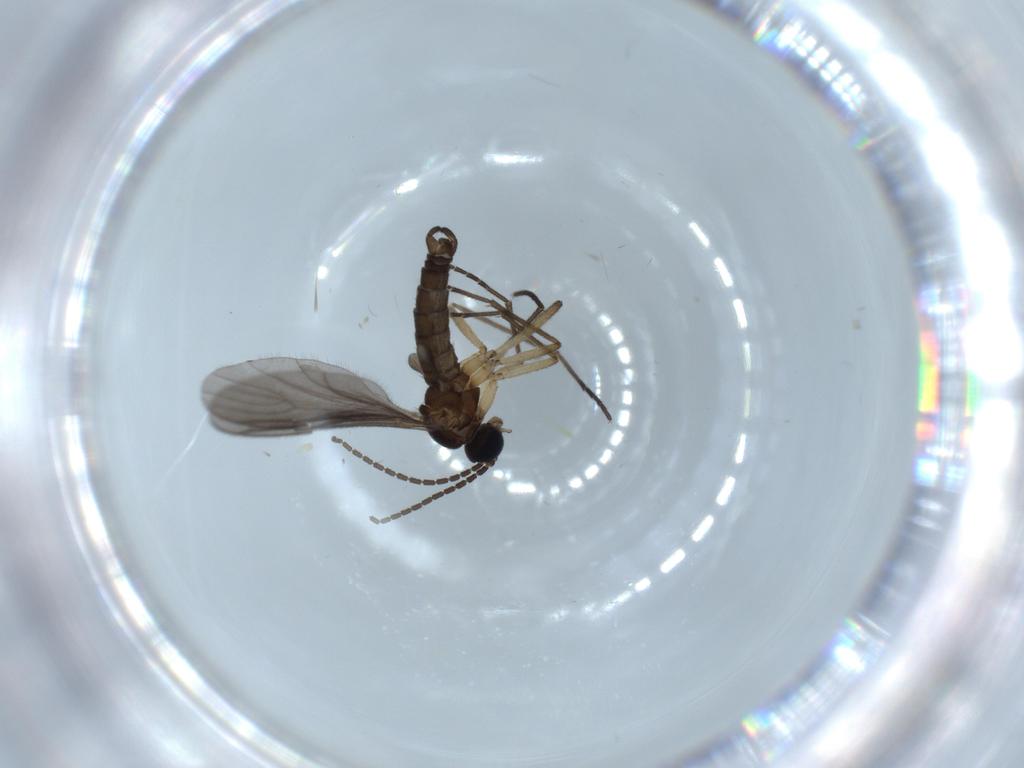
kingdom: Animalia
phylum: Arthropoda
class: Insecta
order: Diptera
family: Sciaridae
